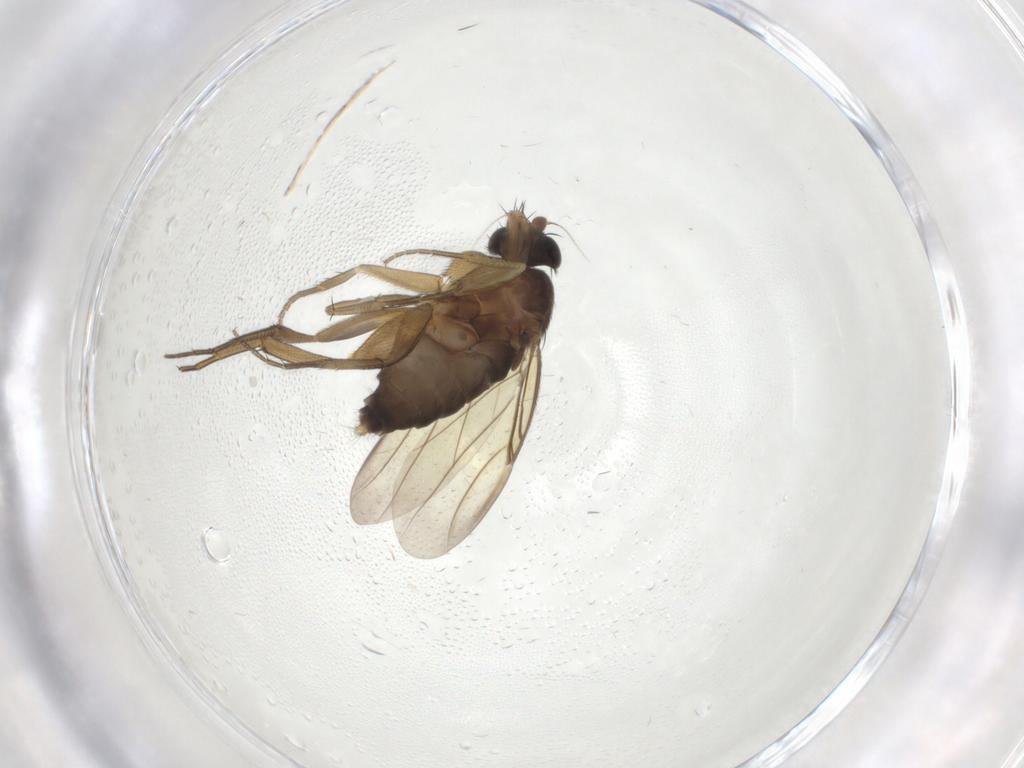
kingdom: Animalia
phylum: Arthropoda
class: Insecta
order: Diptera
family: Phoridae
